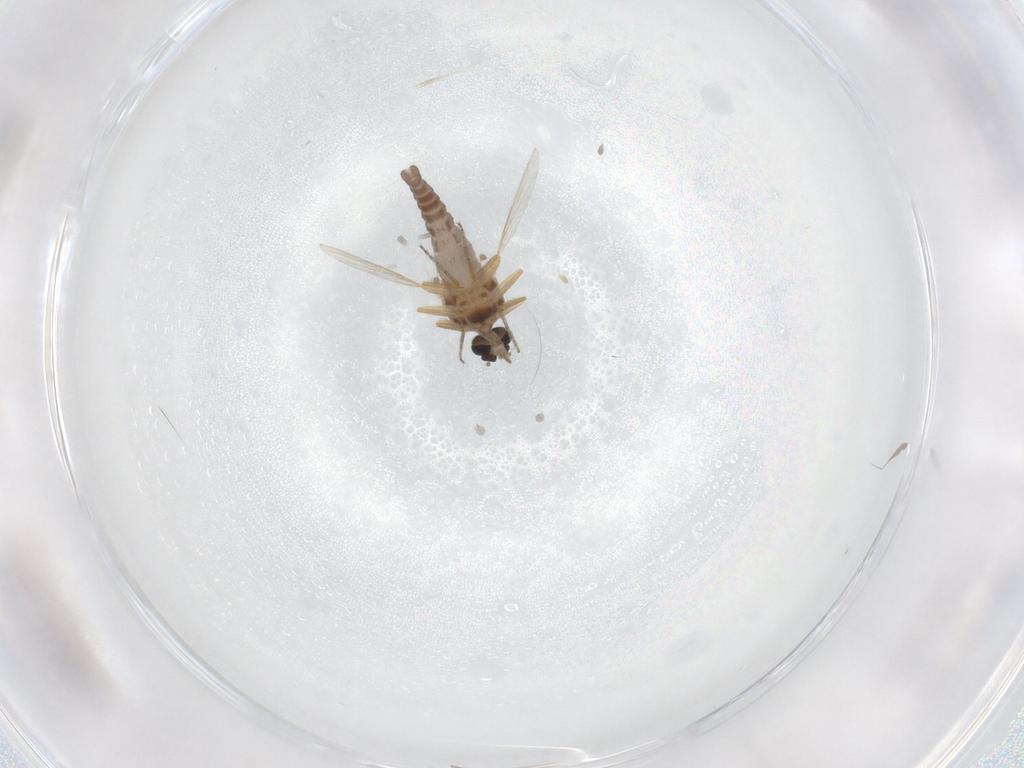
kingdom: Animalia
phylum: Arthropoda
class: Insecta
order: Diptera
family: Ceratopogonidae
